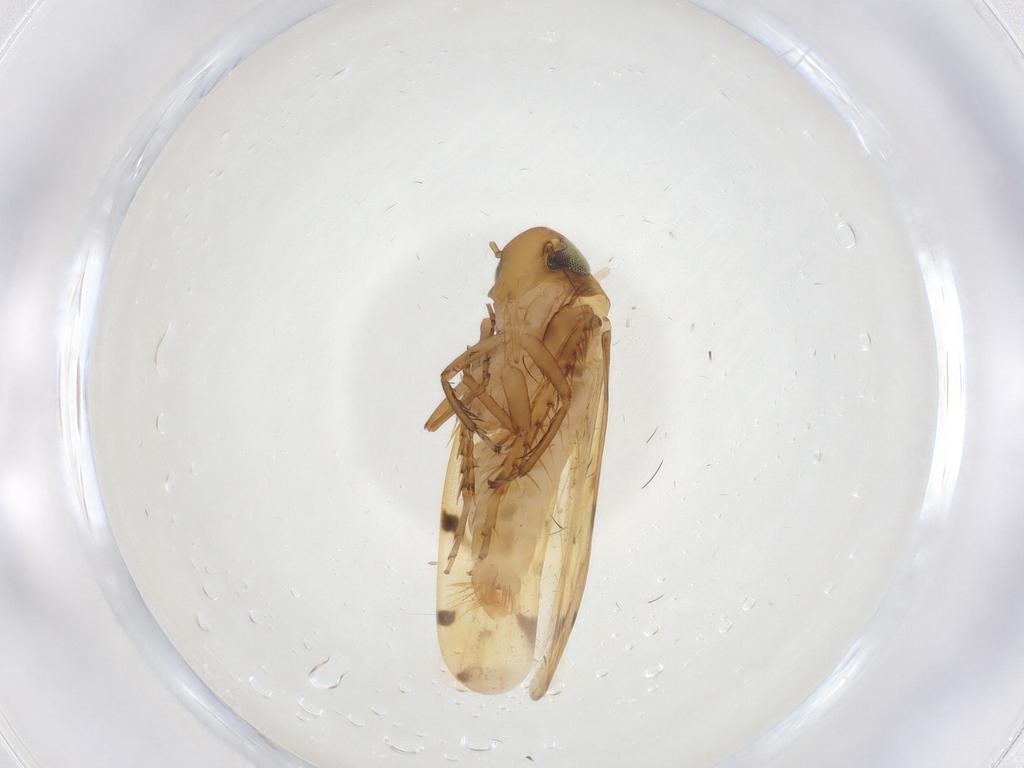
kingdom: Animalia
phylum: Arthropoda
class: Insecta
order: Hemiptera
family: Cicadellidae
